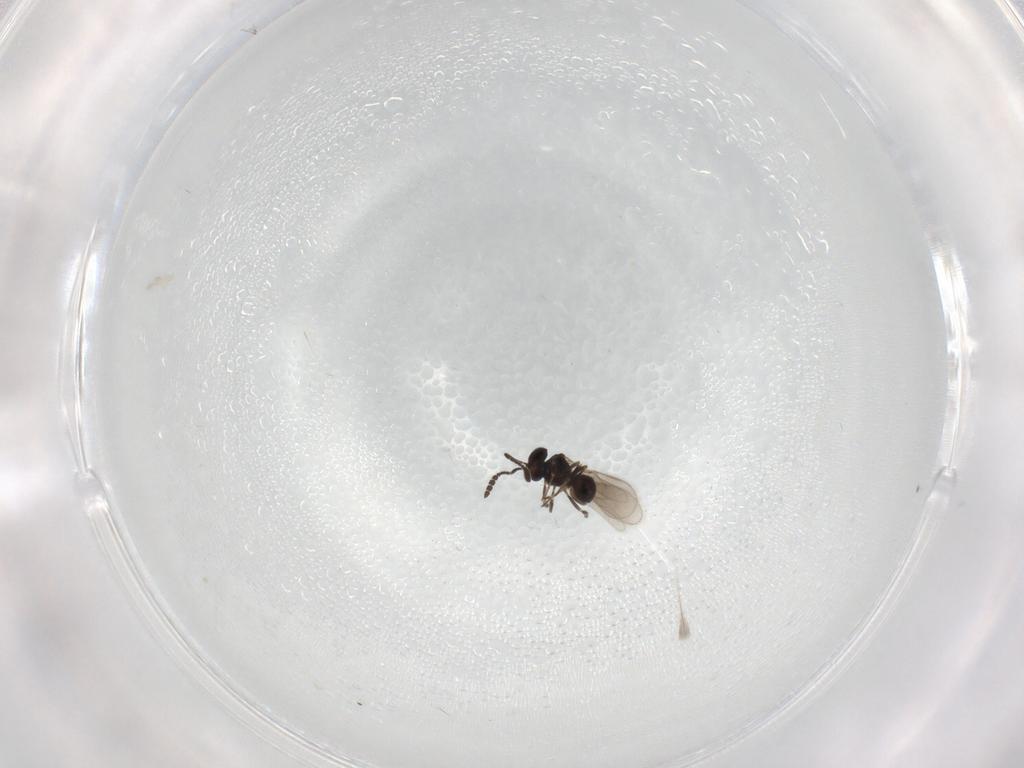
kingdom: Animalia
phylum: Arthropoda
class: Insecta
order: Hymenoptera
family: Scelionidae
